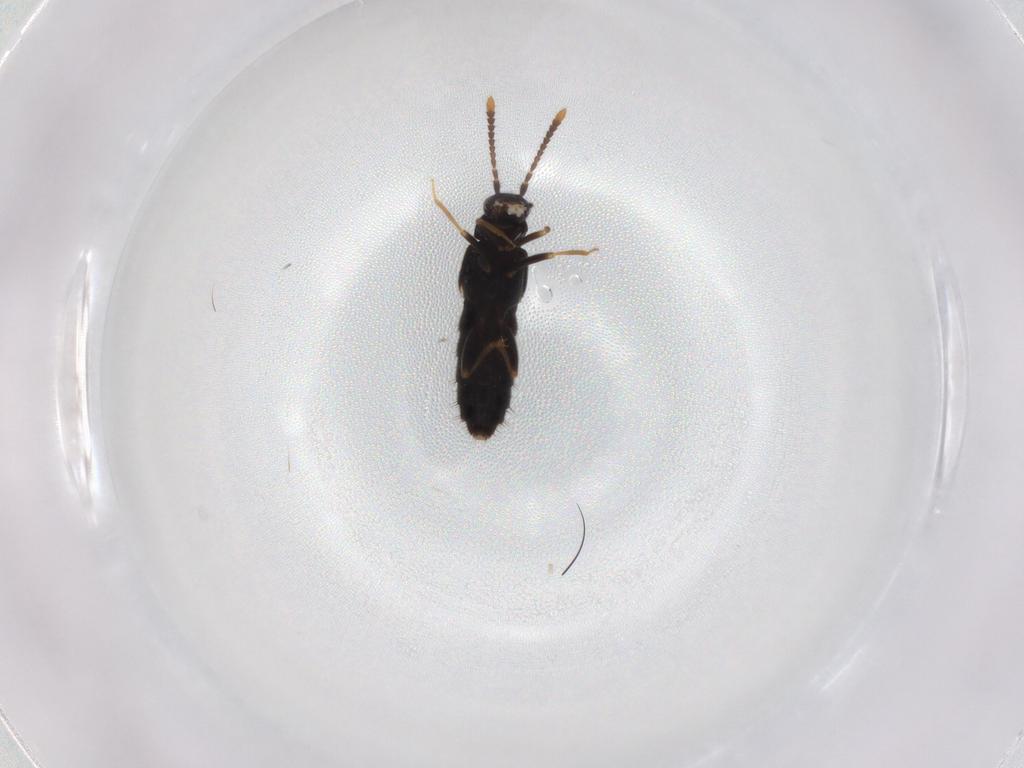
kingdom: Animalia
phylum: Arthropoda
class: Insecta
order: Coleoptera
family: Staphylinidae
